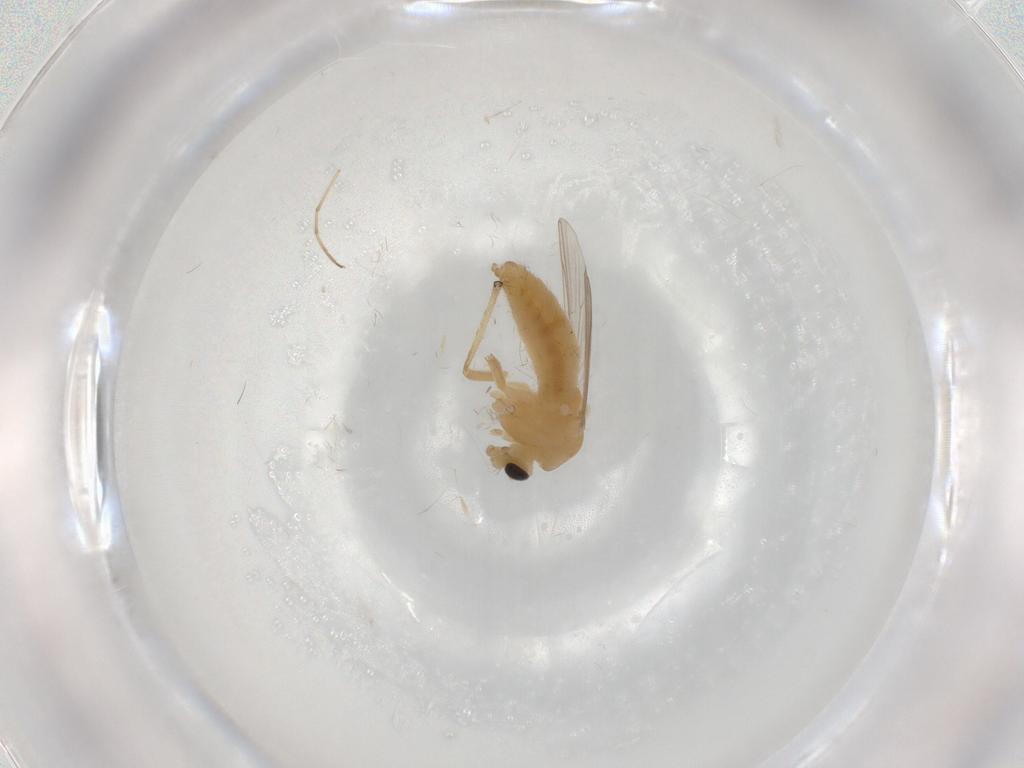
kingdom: Animalia
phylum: Arthropoda
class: Insecta
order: Diptera
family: Chironomidae
